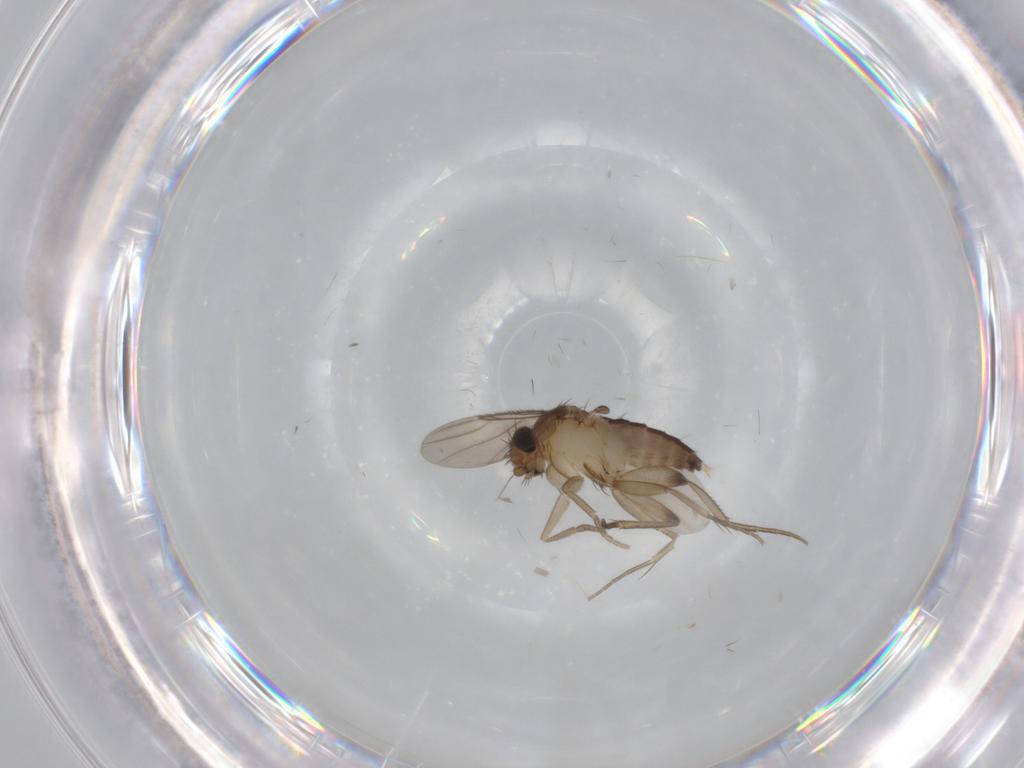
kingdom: Animalia
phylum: Arthropoda
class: Insecta
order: Diptera
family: Phoridae
